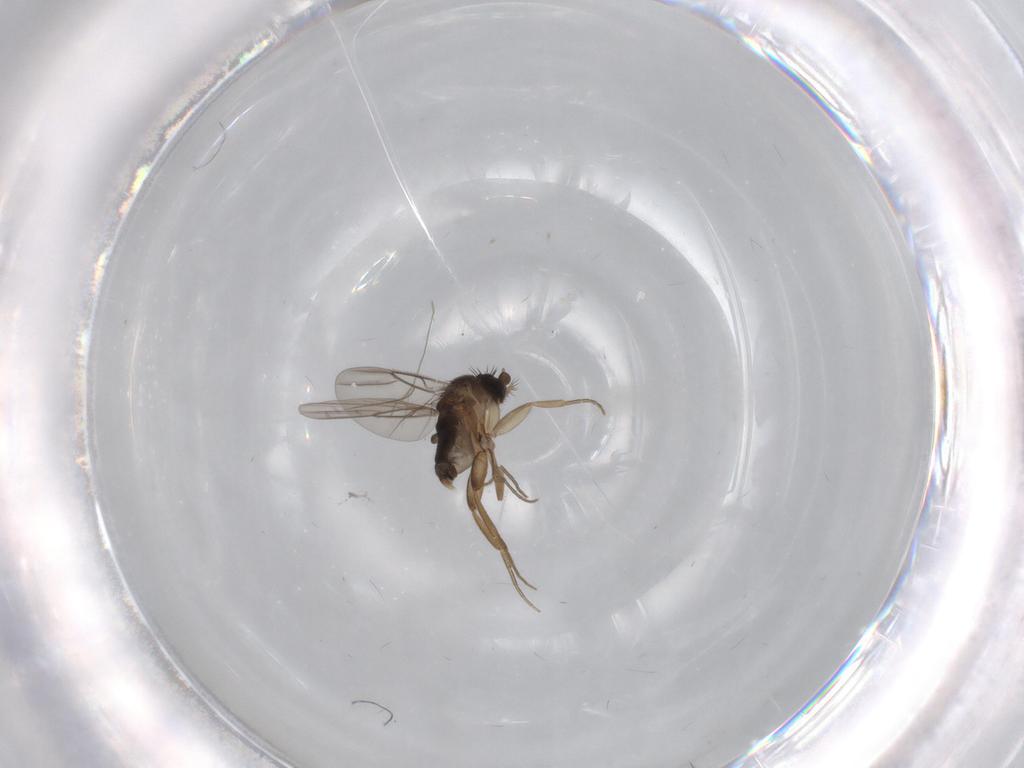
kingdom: Animalia
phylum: Arthropoda
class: Insecta
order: Diptera
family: Phoridae
